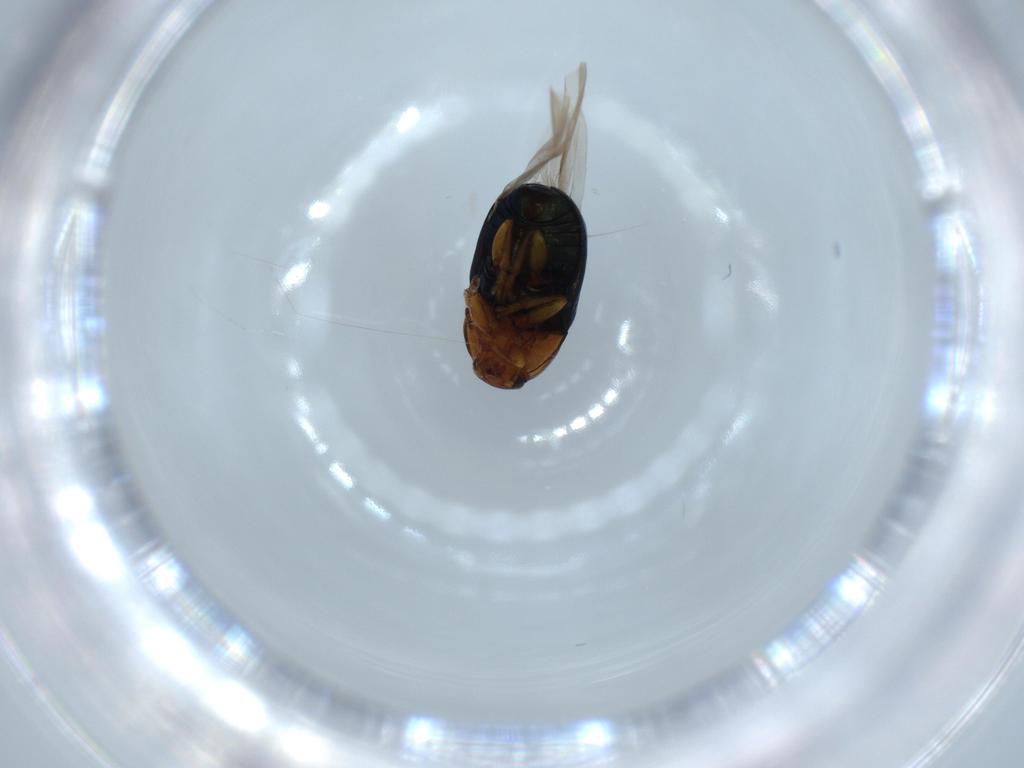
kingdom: Animalia
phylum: Arthropoda
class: Insecta
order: Coleoptera
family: Chrysomelidae
